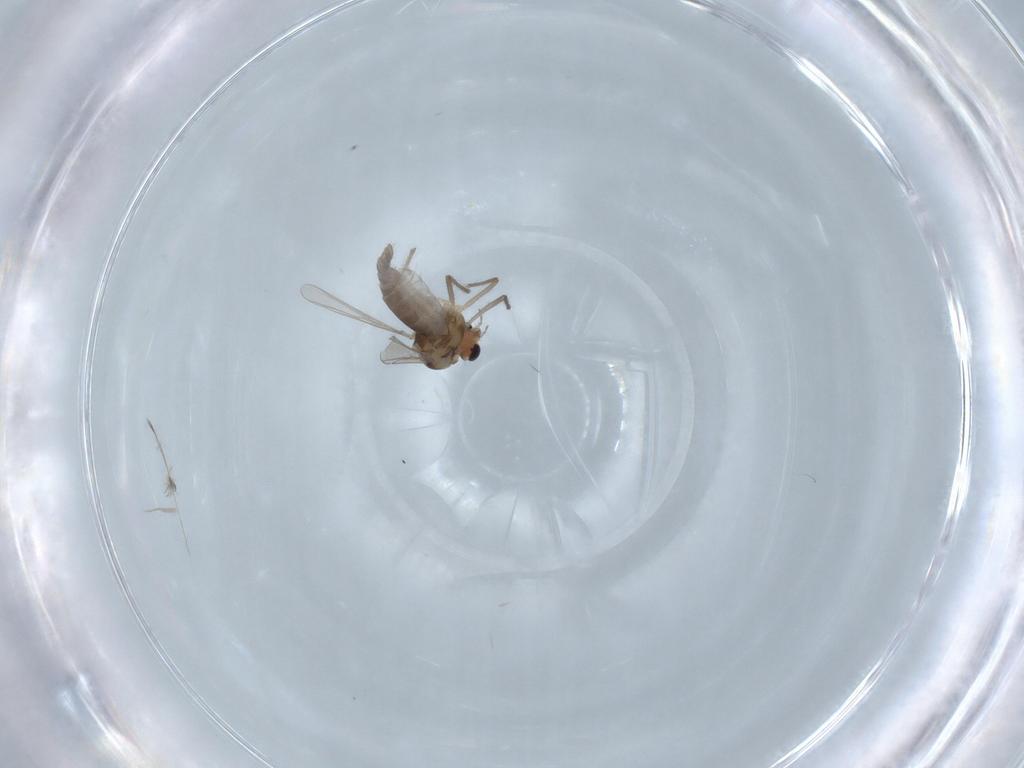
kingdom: Animalia
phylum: Arthropoda
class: Insecta
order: Diptera
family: Chironomidae
